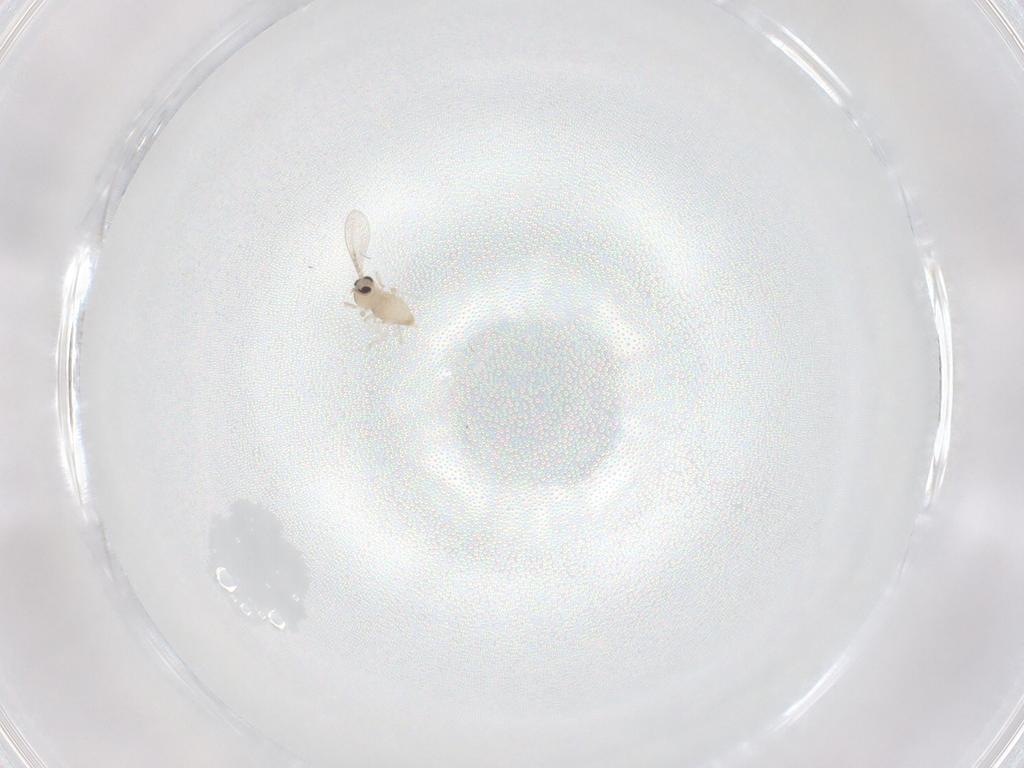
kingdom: Animalia
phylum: Arthropoda
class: Insecta
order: Diptera
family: Cecidomyiidae
